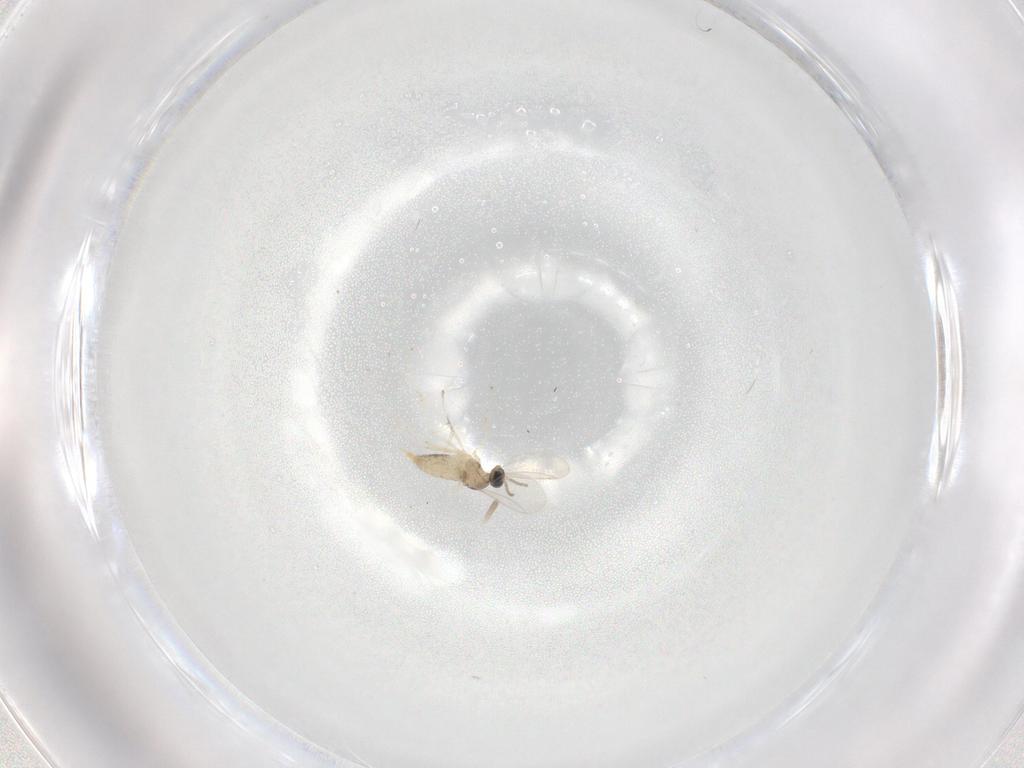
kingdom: Animalia
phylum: Arthropoda
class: Insecta
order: Diptera
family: Cecidomyiidae
